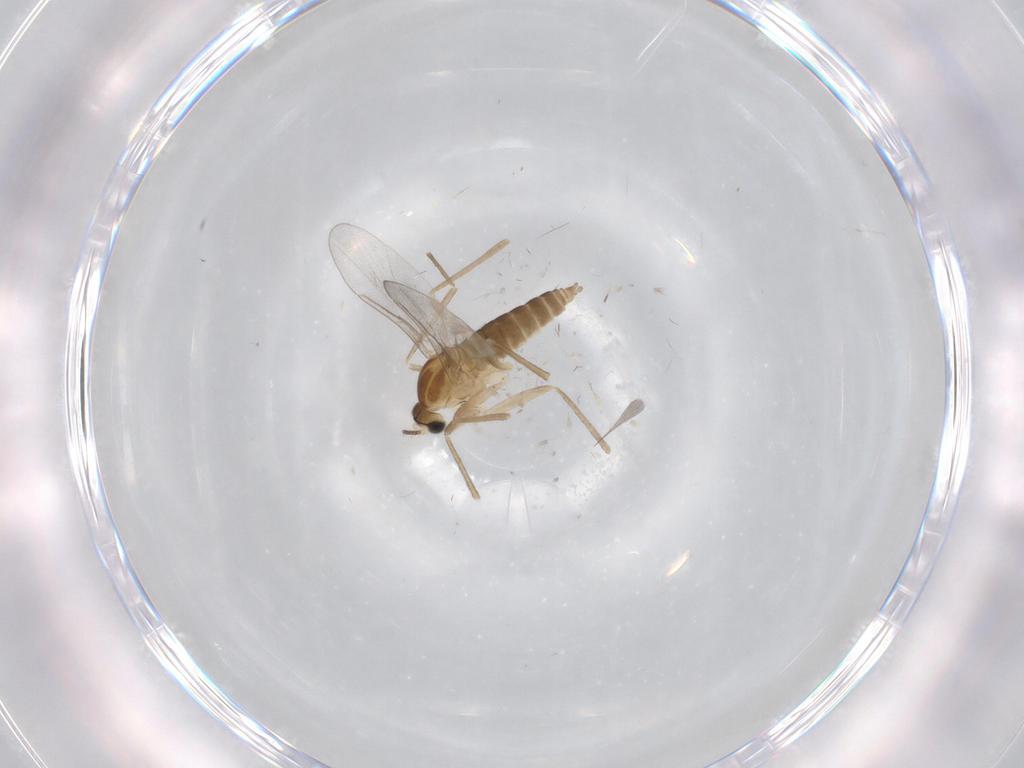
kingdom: Animalia
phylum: Arthropoda
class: Insecta
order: Diptera
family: Cecidomyiidae
